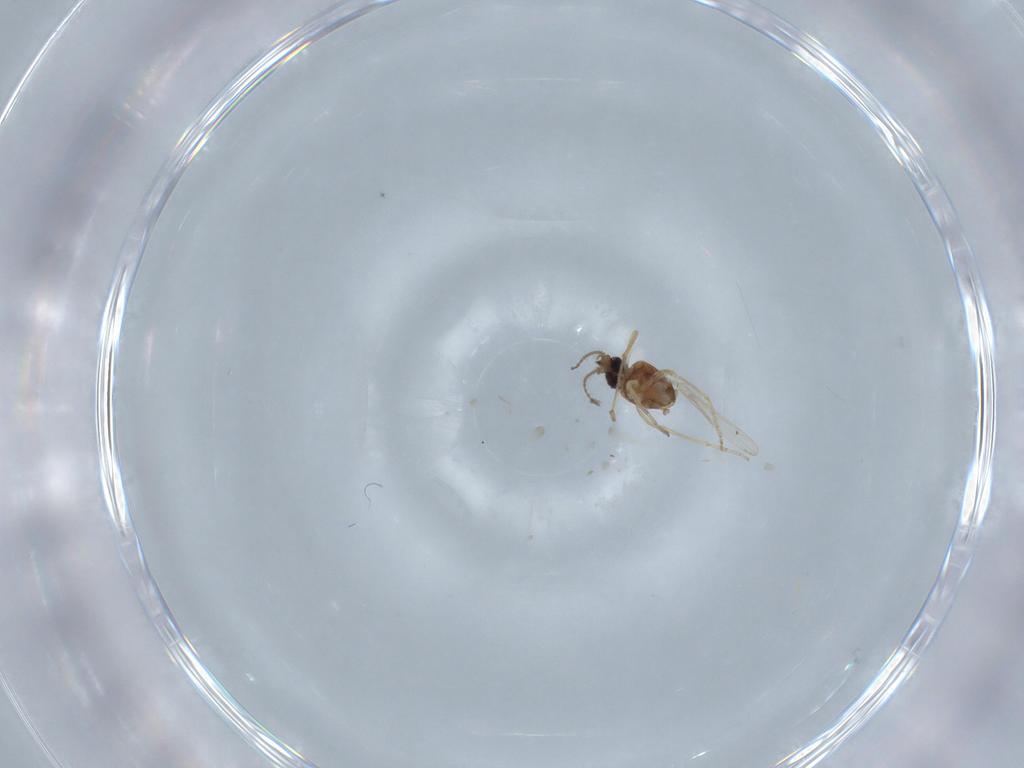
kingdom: Animalia
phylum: Arthropoda
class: Insecta
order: Diptera
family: Ceratopogonidae
